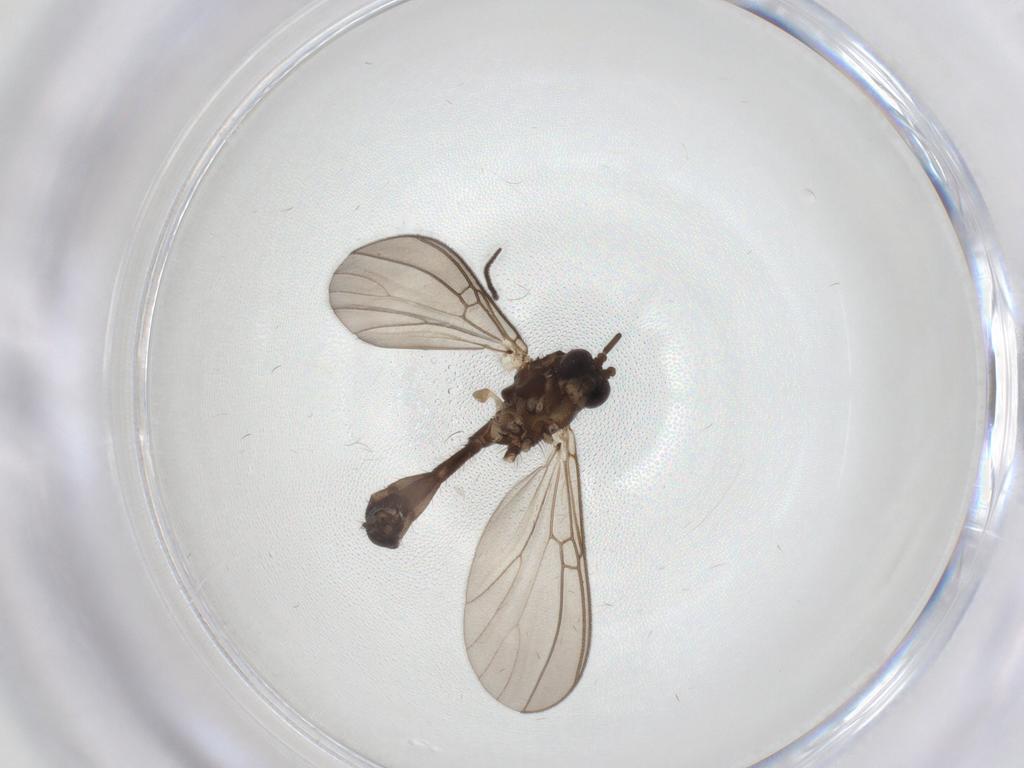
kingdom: Animalia
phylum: Arthropoda
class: Insecta
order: Diptera
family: Mycetophilidae
